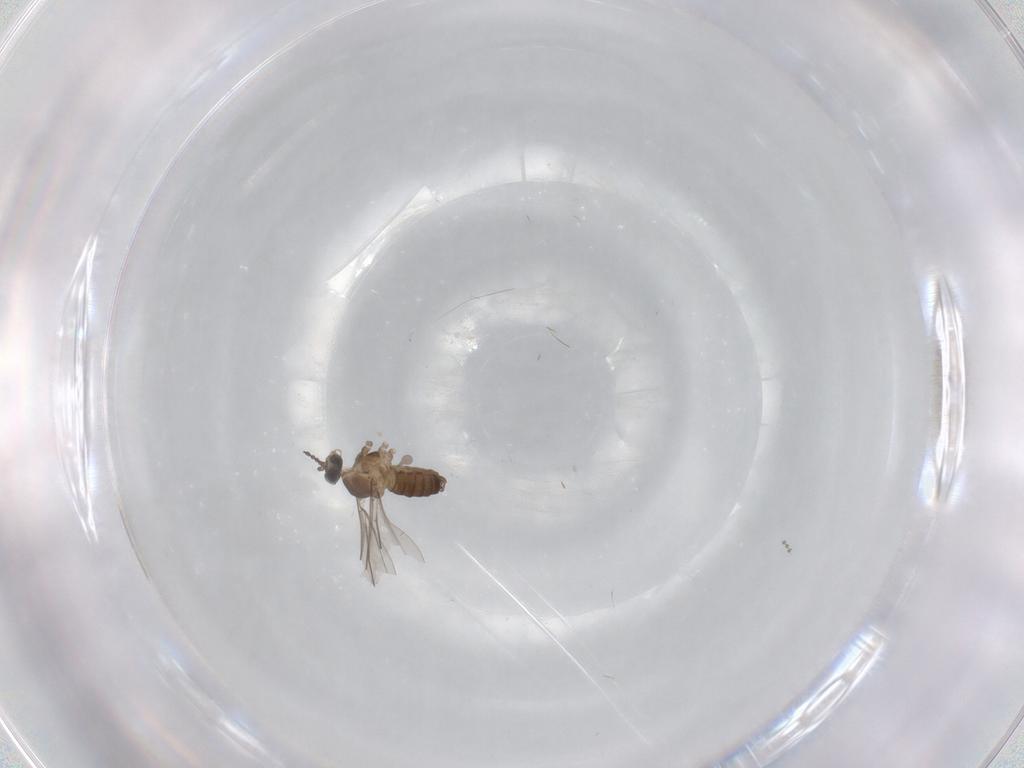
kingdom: Animalia
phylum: Arthropoda
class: Insecta
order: Diptera
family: Cecidomyiidae
